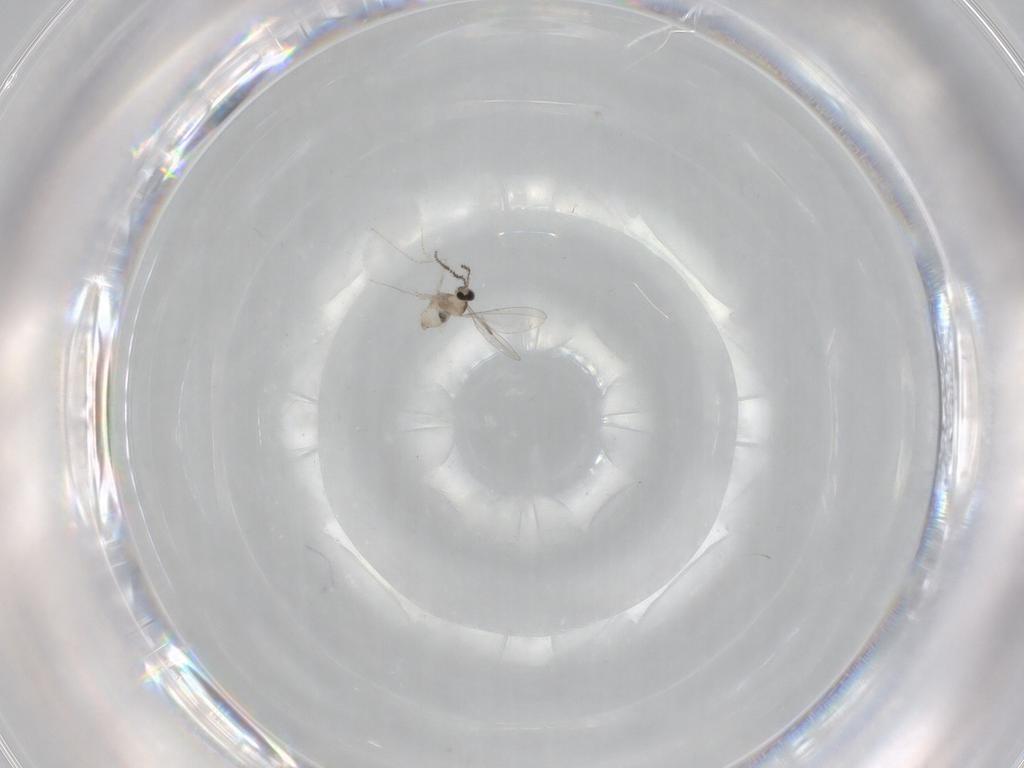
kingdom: Animalia
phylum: Arthropoda
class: Insecta
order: Diptera
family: Cecidomyiidae
